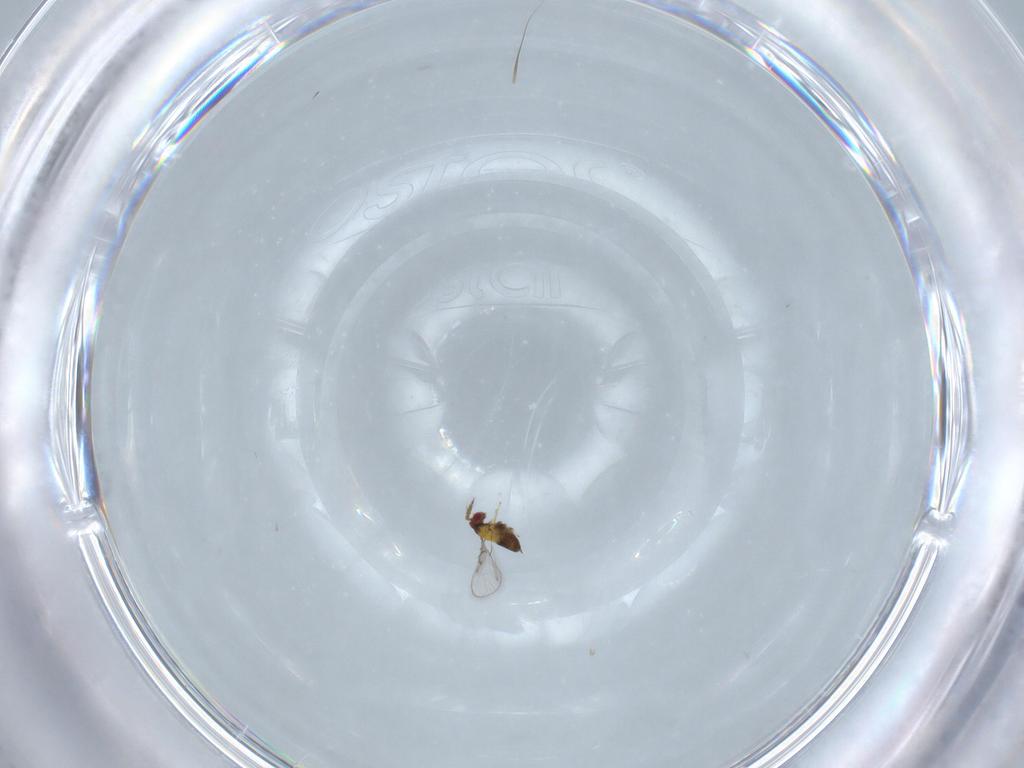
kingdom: Animalia
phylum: Arthropoda
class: Insecta
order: Hymenoptera
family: Trichogrammatidae
